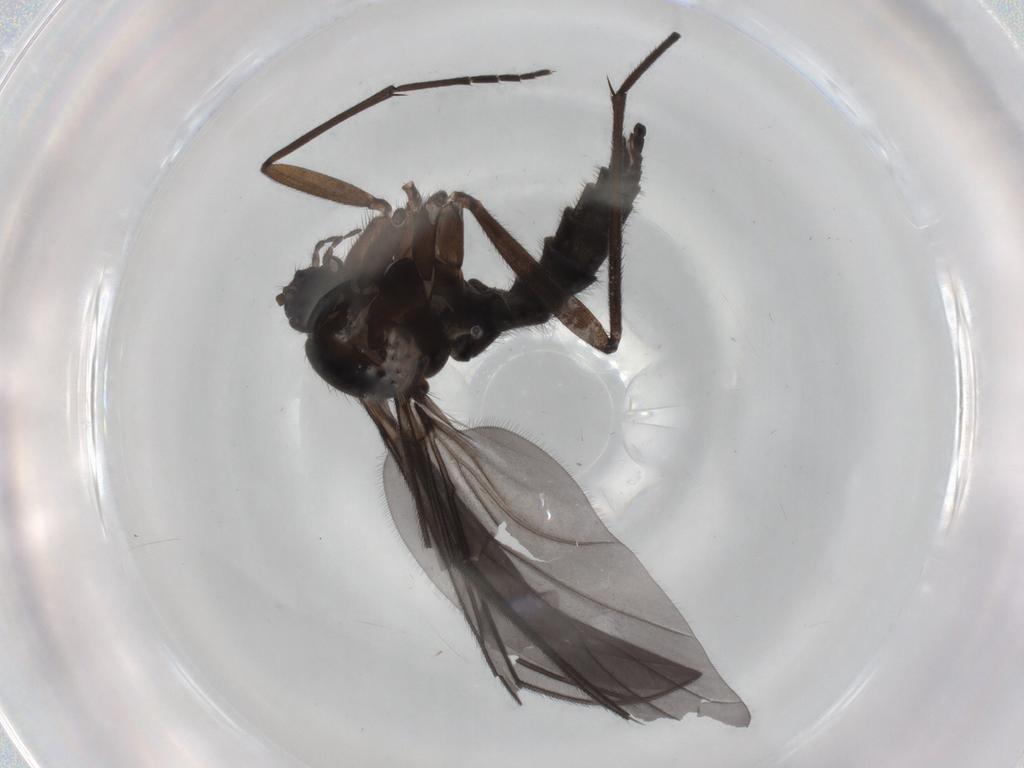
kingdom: Animalia
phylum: Arthropoda
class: Insecta
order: Diptera
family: Sciaridae
